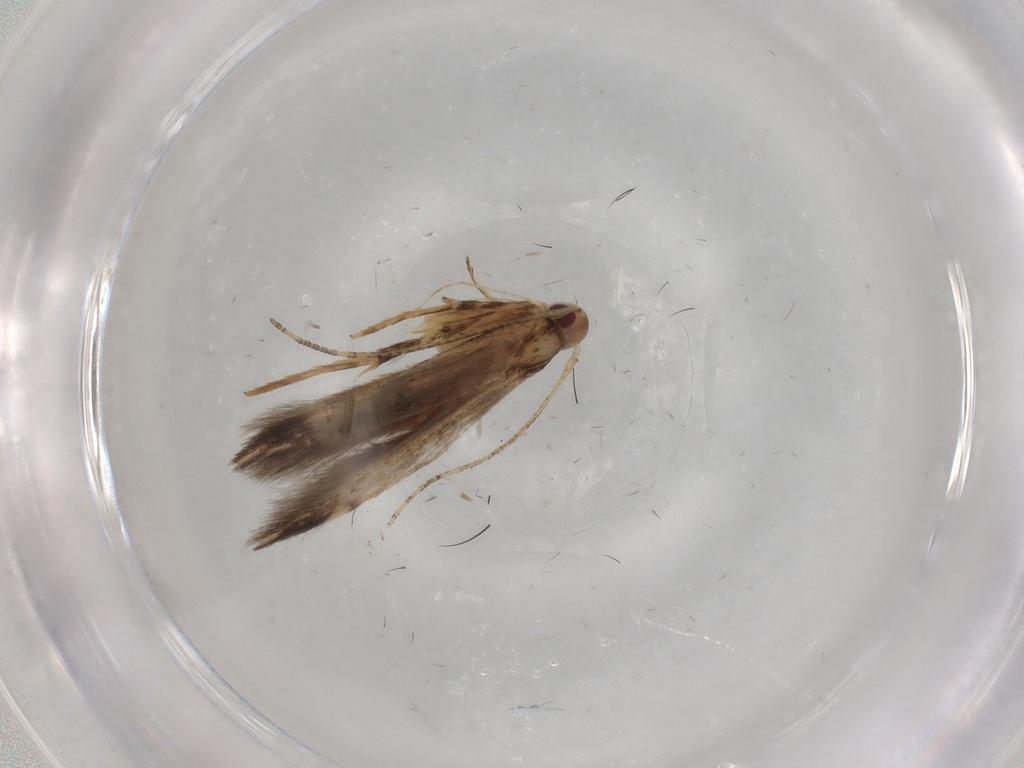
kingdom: Animalia
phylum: Arthropoda
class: Insecta
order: Lepidoptera
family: Cosmopterigidae
